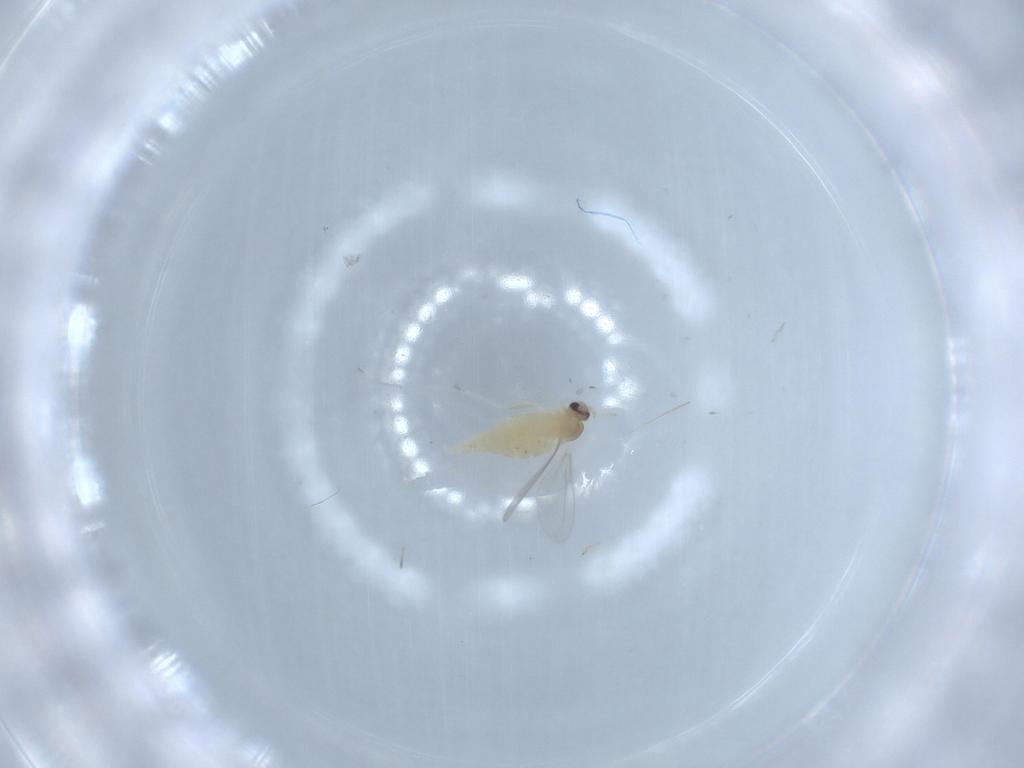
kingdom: Animalia
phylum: Arthropoda
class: Insecta
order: Diptera
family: Cecidomyiidae
